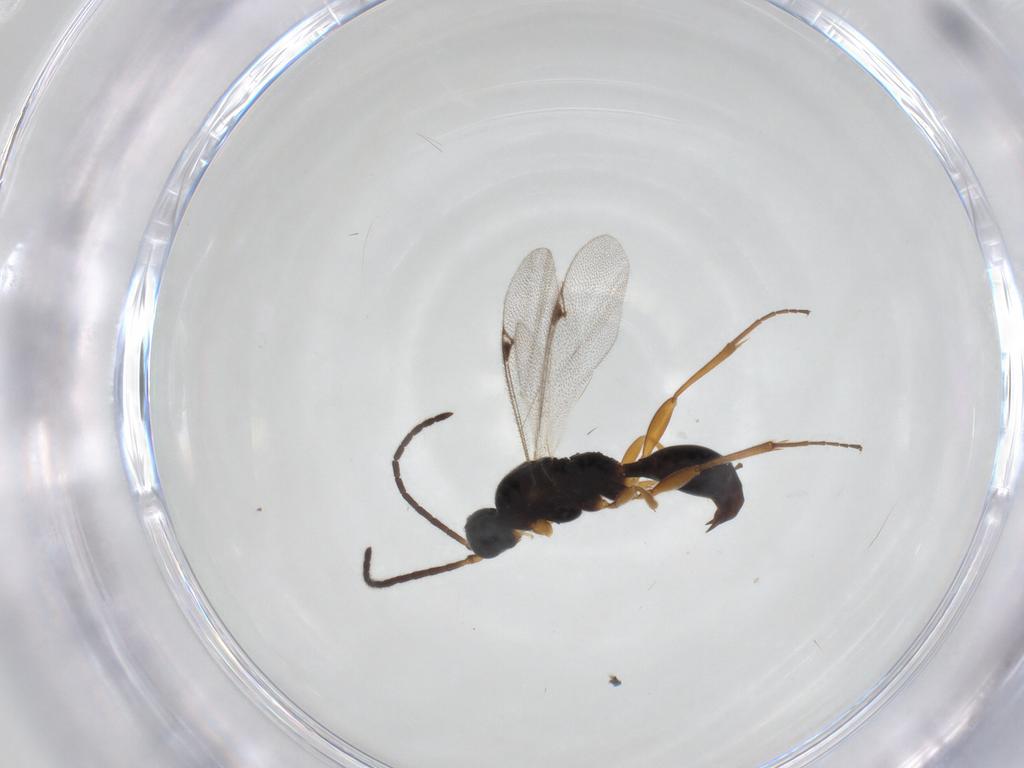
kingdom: Animalia
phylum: Arthropoda
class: Insecta
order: Hymenoptera
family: Proctotrupidae
